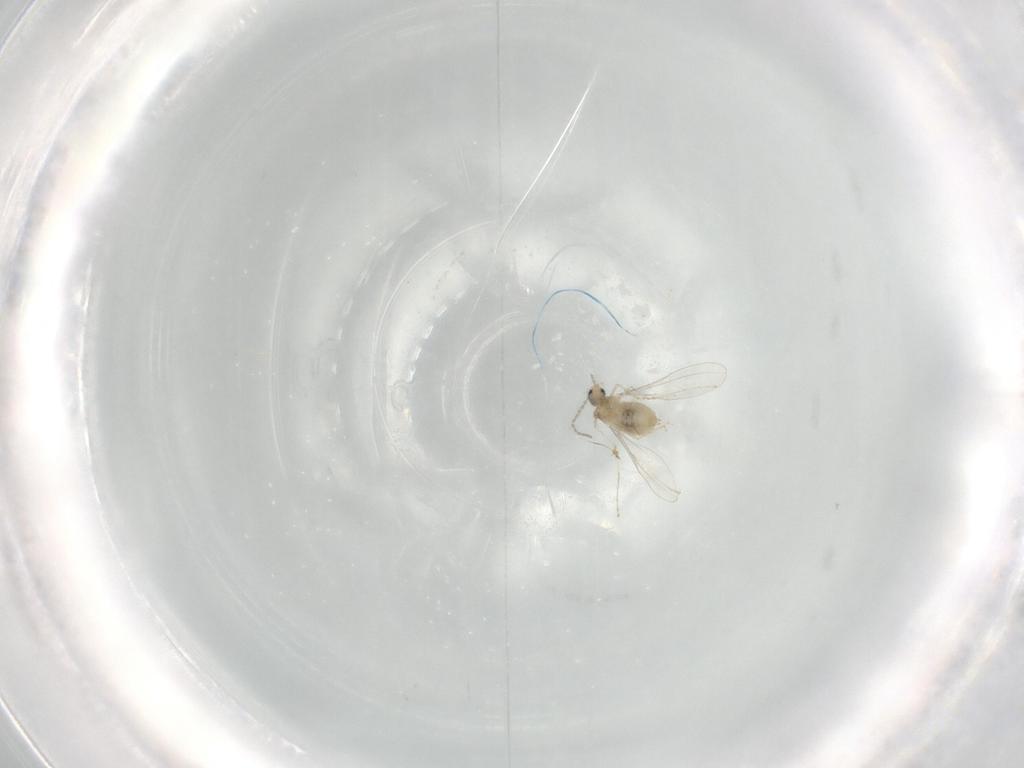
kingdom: Animalia
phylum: Arthropoda
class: Insecta
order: Diptera
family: Cecidomyiidae
